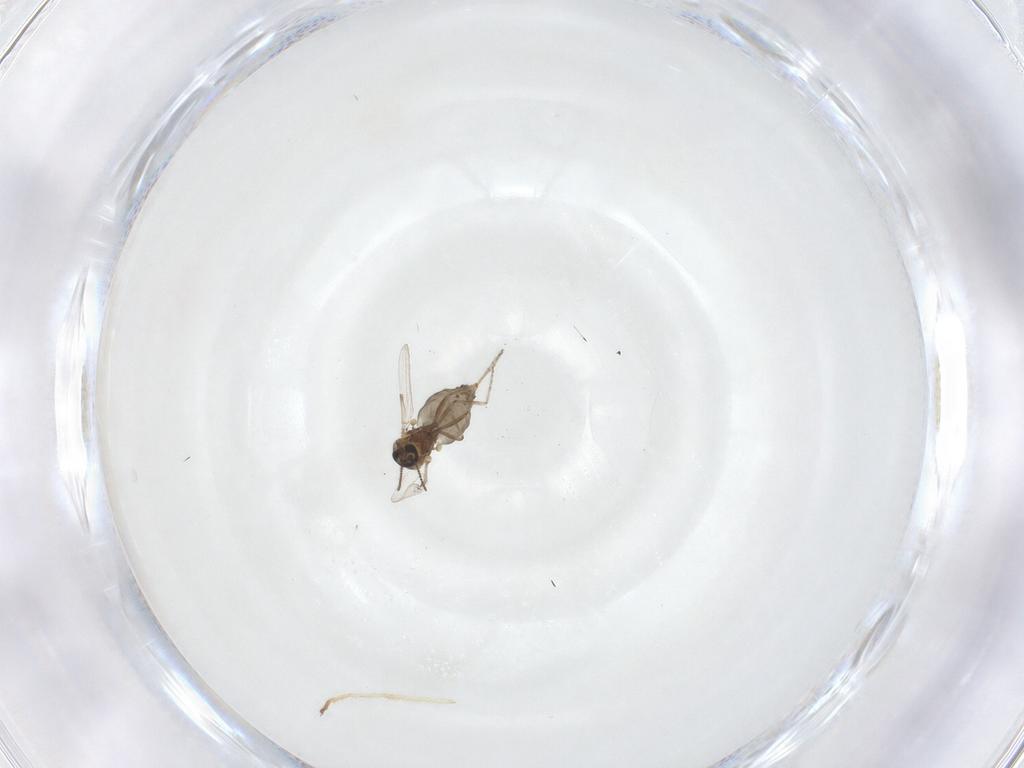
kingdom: Animalia
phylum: Arthropoda
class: Insecta
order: Diptera
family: Ceratopogonidae
